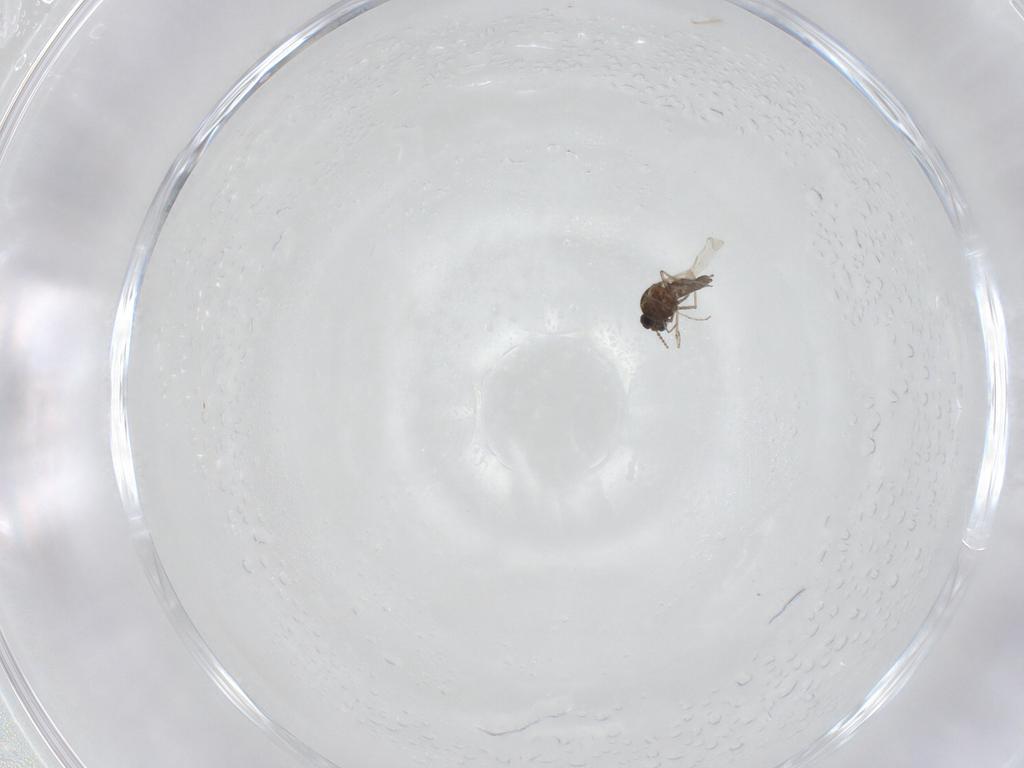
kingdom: Animalia
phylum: Arthropoda
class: Insecta
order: Diptera
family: Ceratopogonidae
